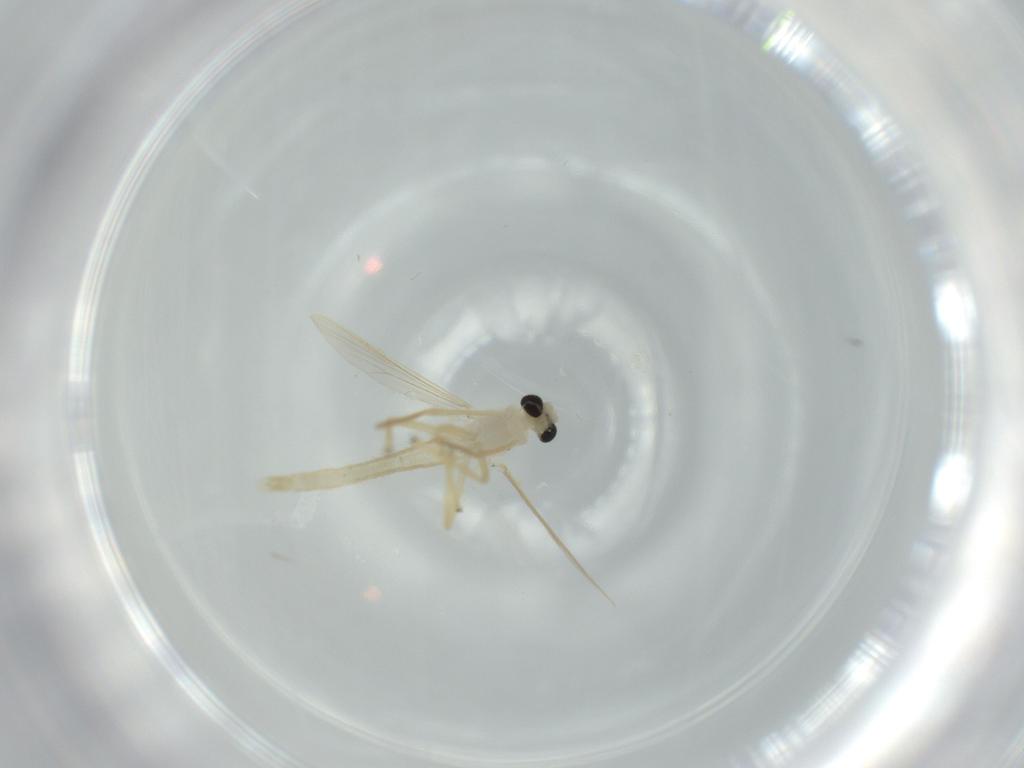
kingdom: Animalia
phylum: Arthropoda
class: Insecta
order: Diptera
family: Chironomidae
